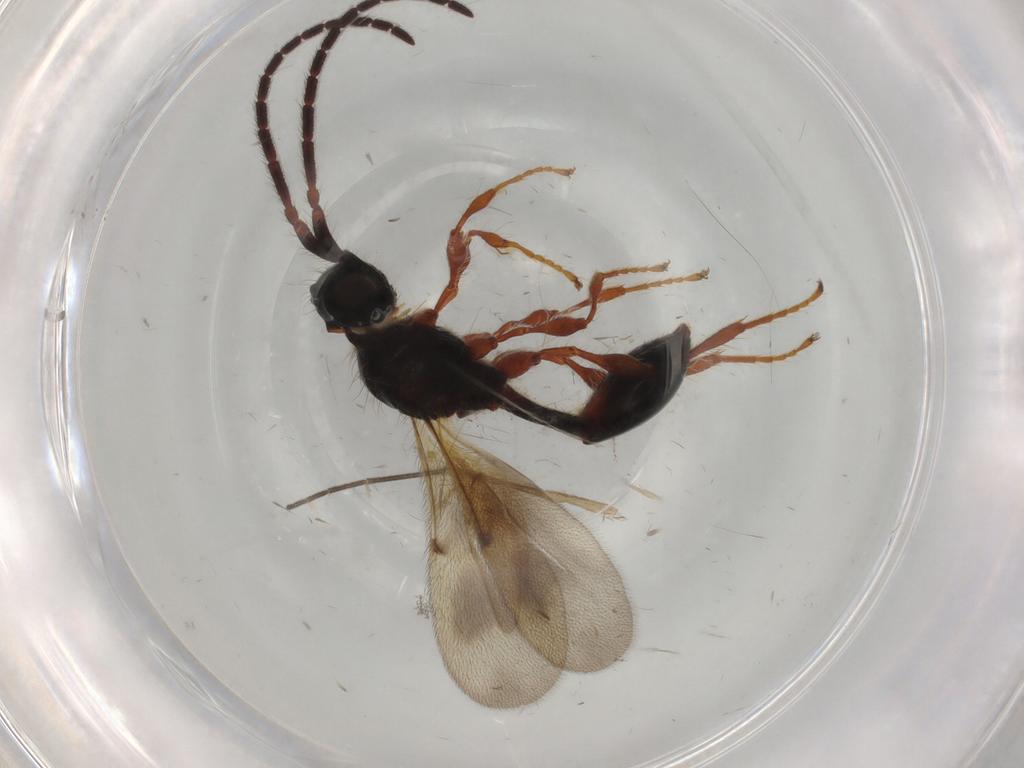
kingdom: Animalia
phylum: Arthropoda
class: Insecta
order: Hymenoptera
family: Diapriidae
